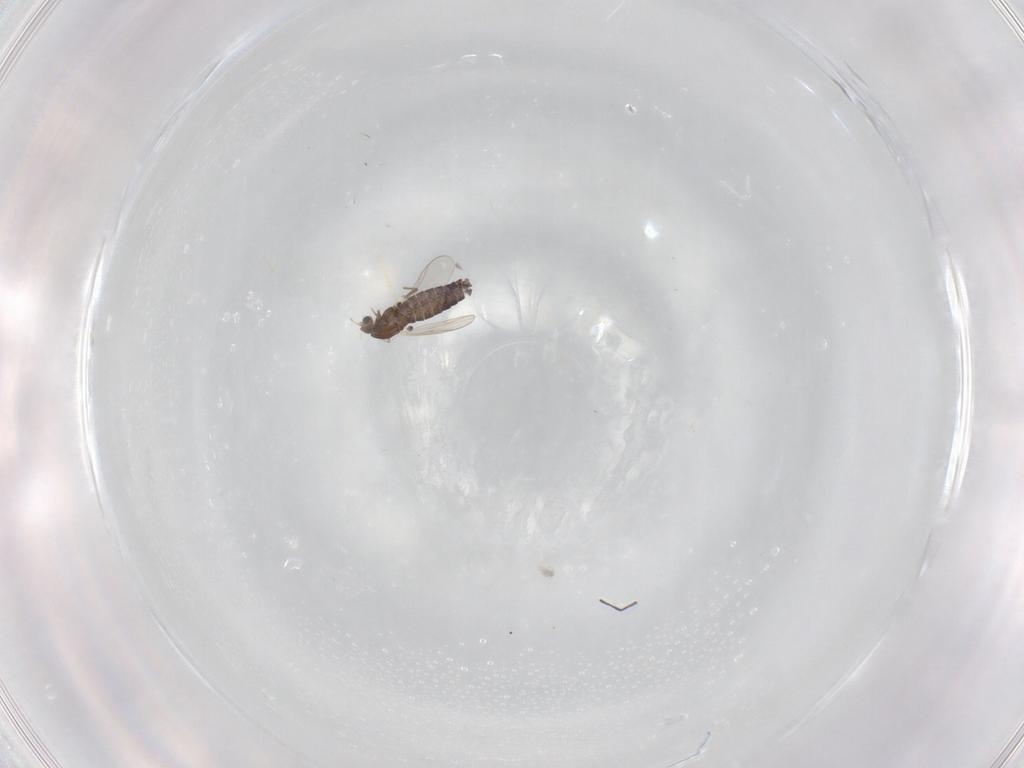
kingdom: Animalia
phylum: Arthropoda
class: Insecta
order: Diptera
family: Chironomidae
